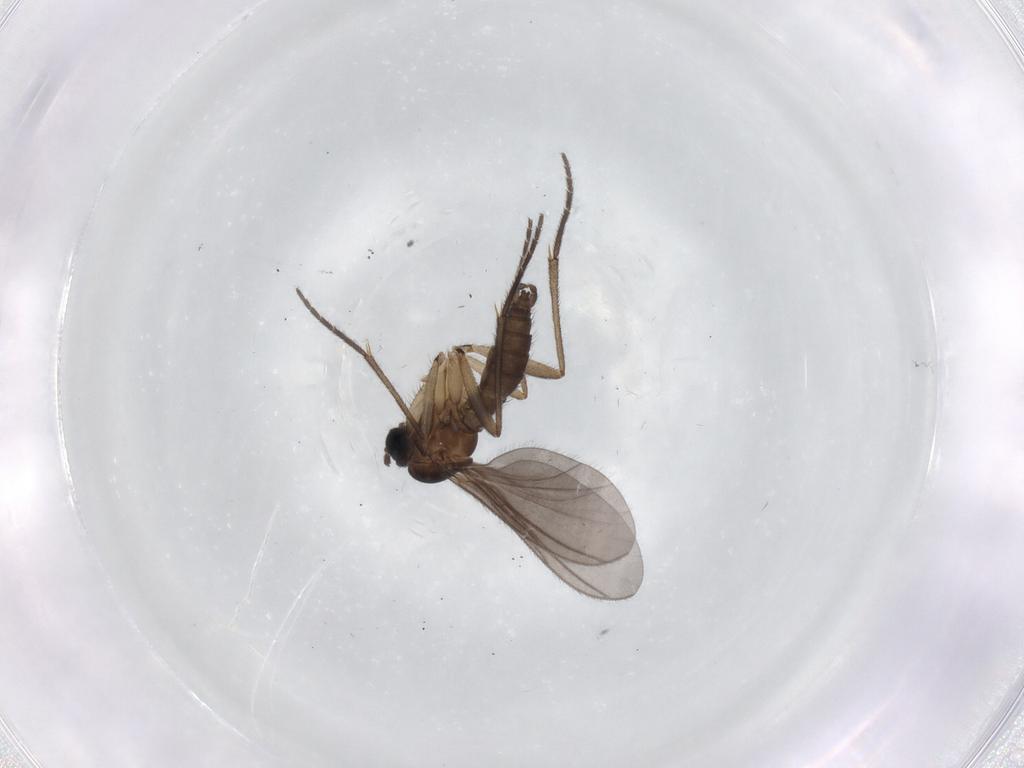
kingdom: Animalia
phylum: Arthropoda
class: Insecta
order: Diptera
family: Sciaridae
